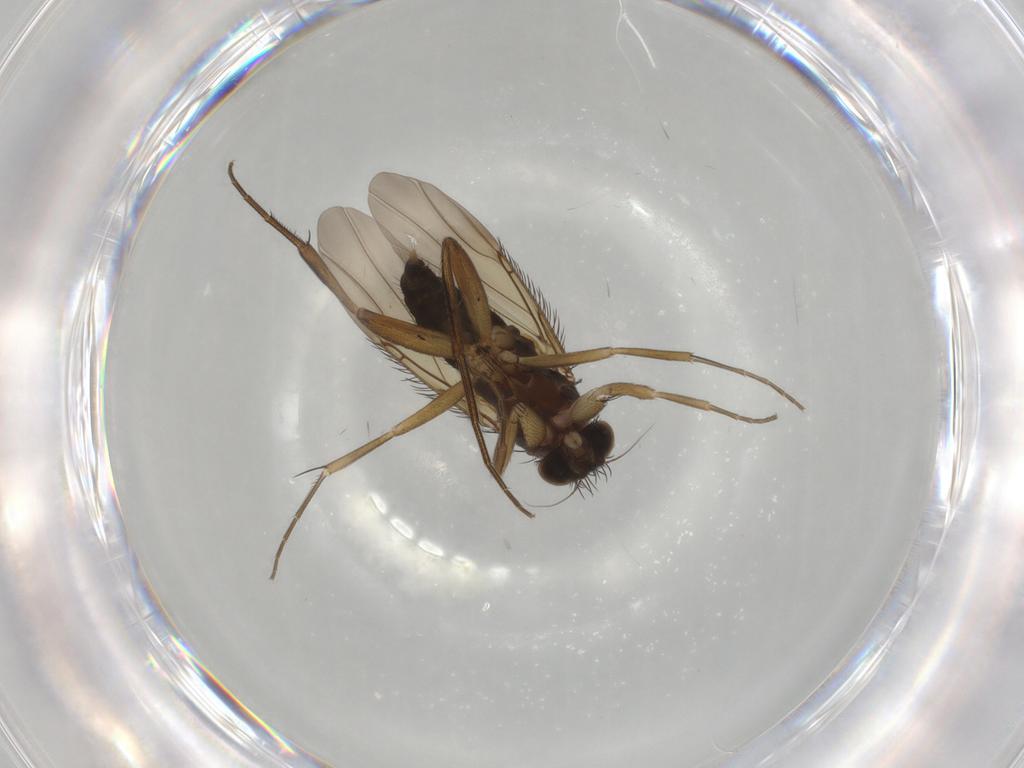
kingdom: Animalia
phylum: Arthropoda
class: Insecta
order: Diptera
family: Phoridae
